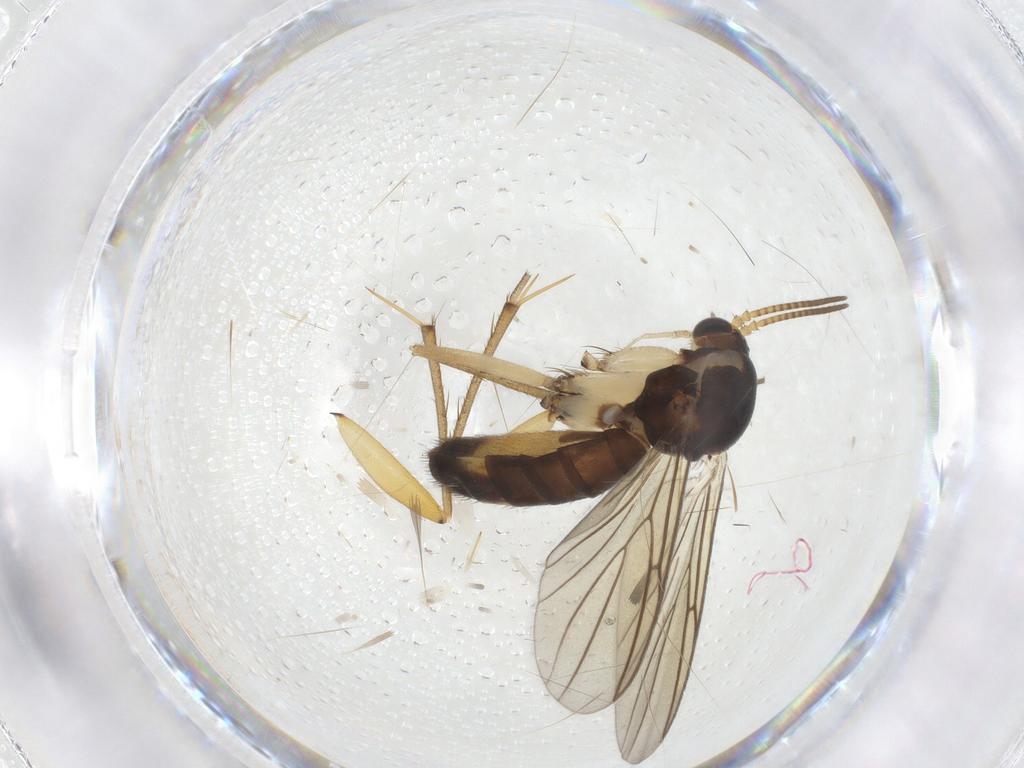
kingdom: Animalia
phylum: Arthropoda
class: Insecta
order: Diptera
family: Mycetophilidae
